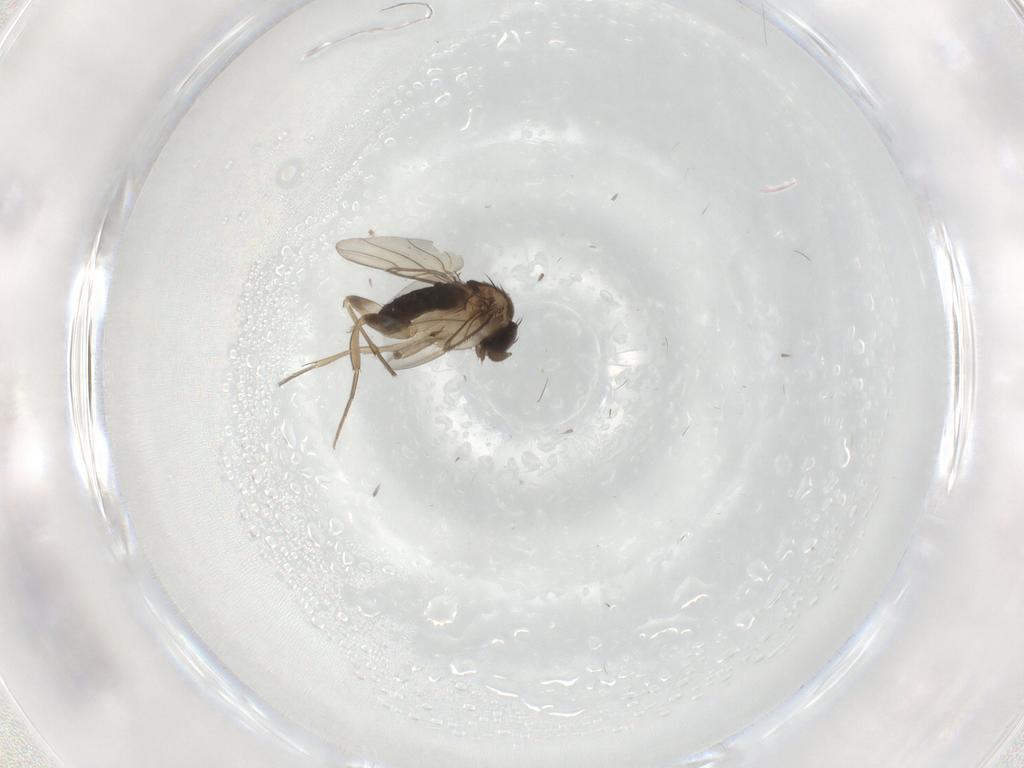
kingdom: Animalia
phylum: Arthropoda
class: Insecta
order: Diptera
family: Phoridae
